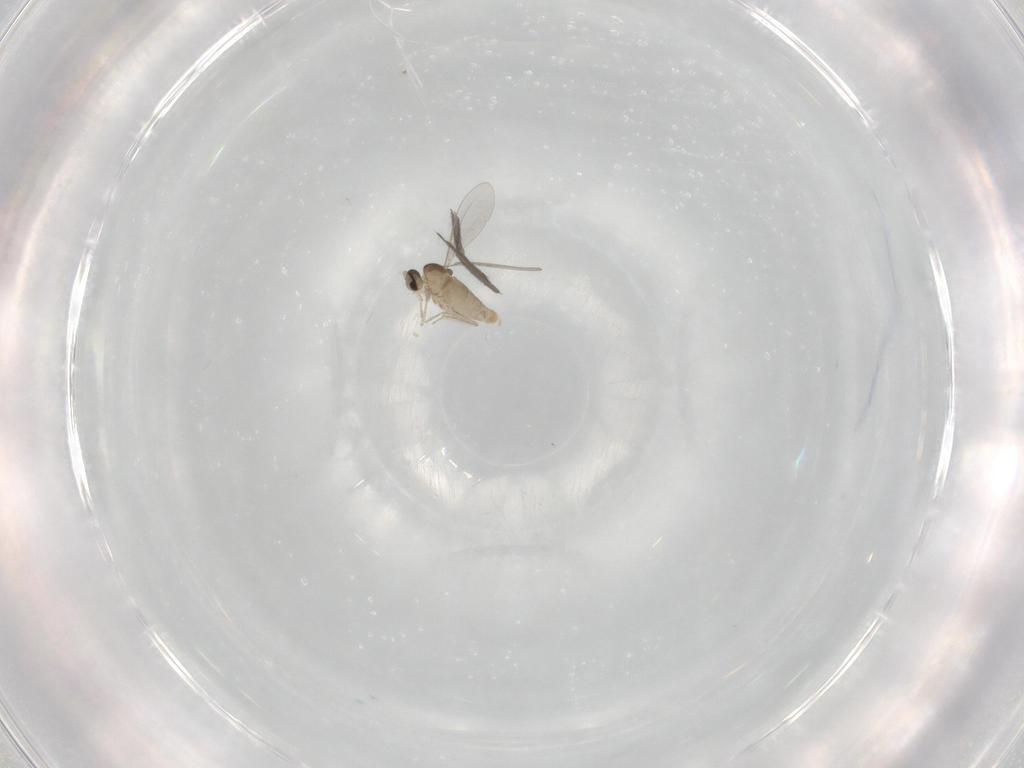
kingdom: Animalia
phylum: Arthropoda
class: Insecta
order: Diptera
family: Cecidomyiidae
